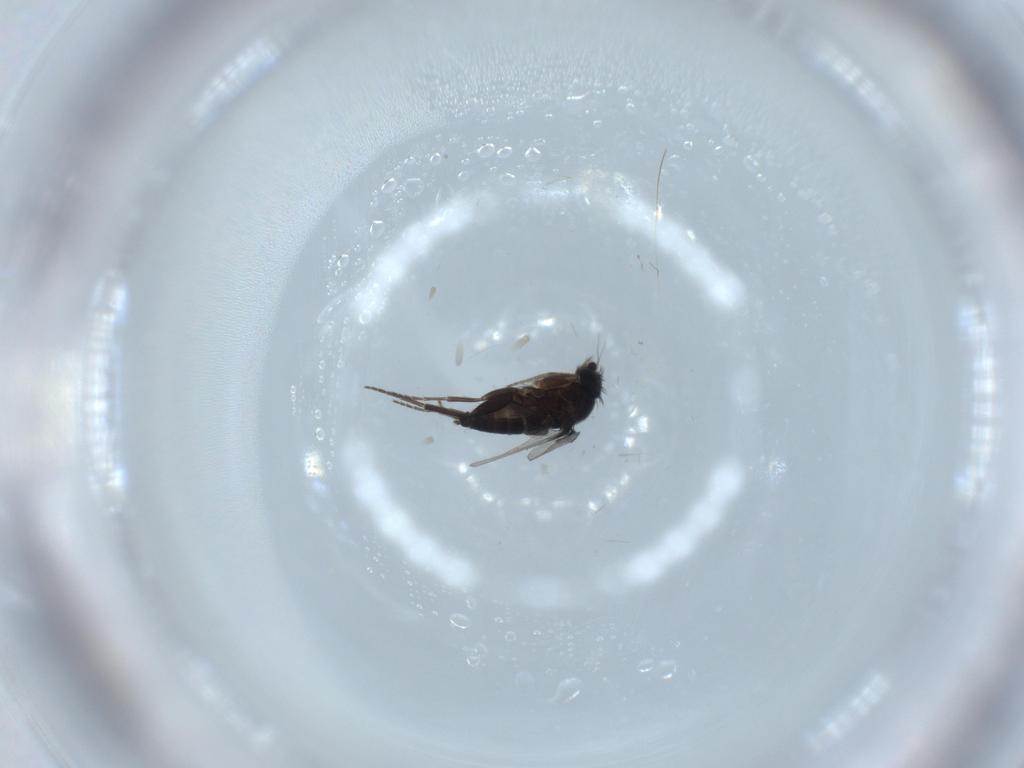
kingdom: Animalia
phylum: Arthropoda
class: Insecta
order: Diptera
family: Phoridae
